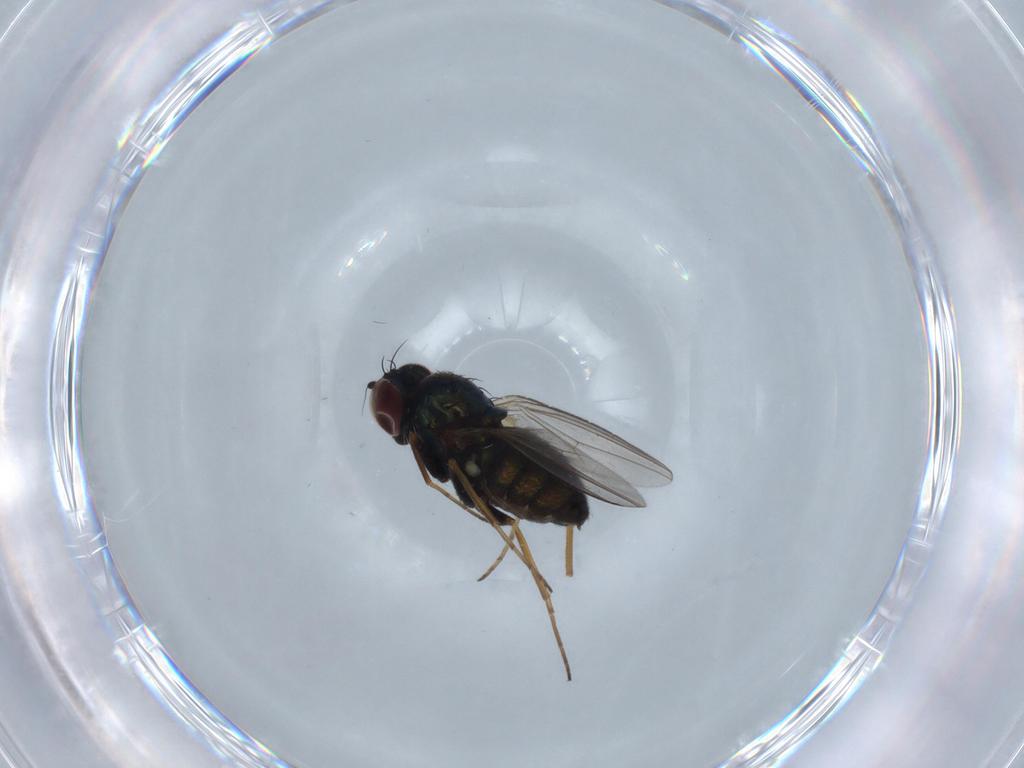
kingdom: Animalia
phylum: Arthropoda
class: Insecta
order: Diptera
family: Dolichopodidae
